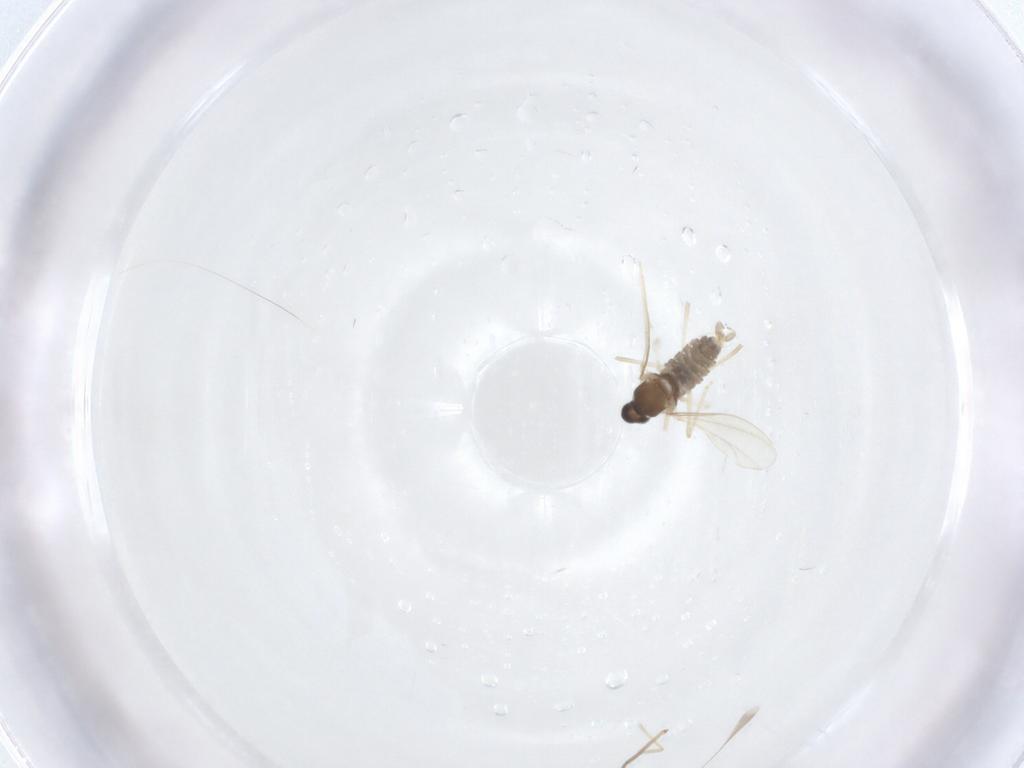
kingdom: Animalia
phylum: Arthropoda
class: Insecta
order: Diptera
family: Cecidomyiidae
